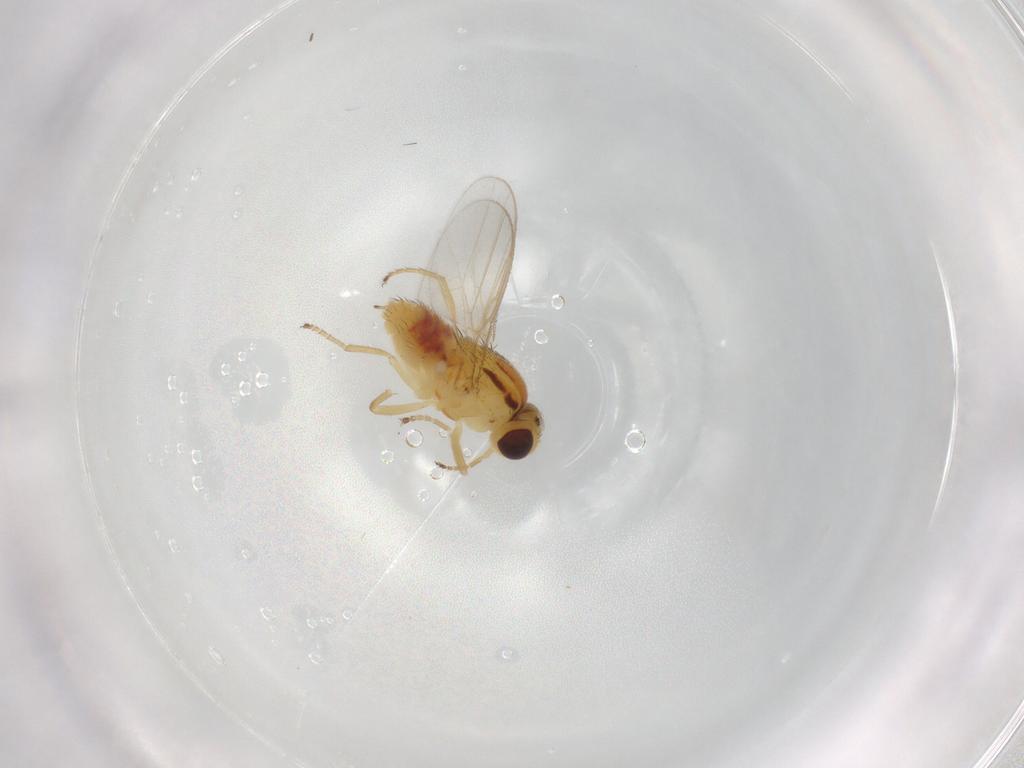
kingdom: Animalia
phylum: Arthropoda
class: Insecta
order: Diptera
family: Chloropidae
